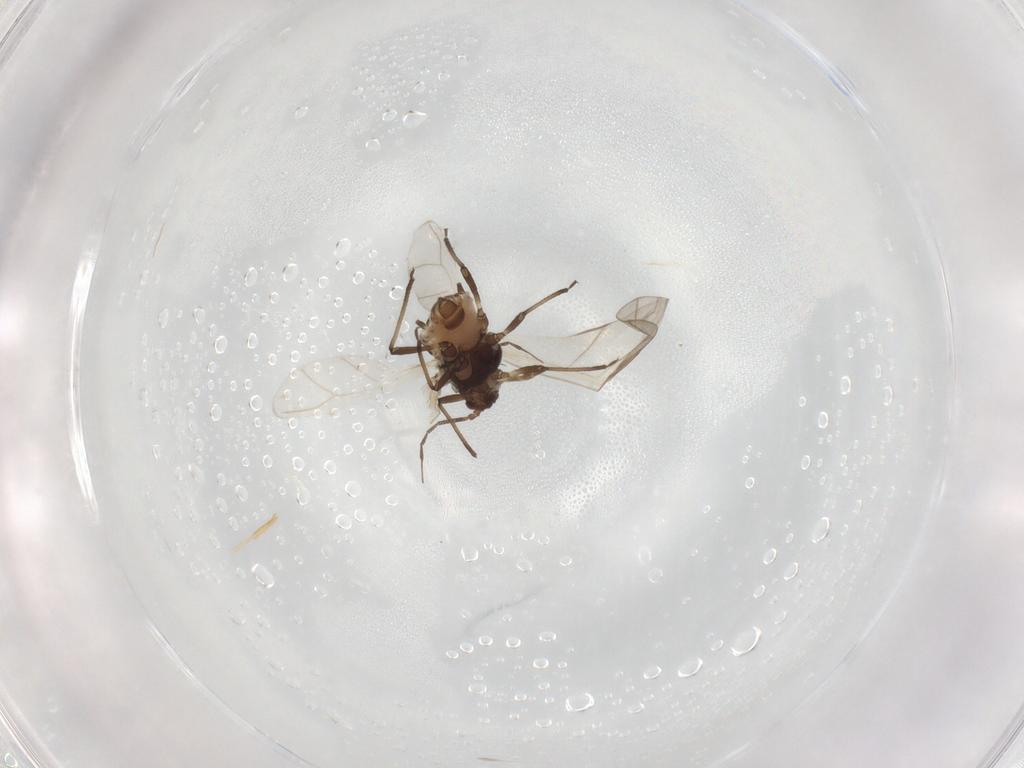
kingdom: Animalia
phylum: Arthropoda
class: Insecta
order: Hemiptera
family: Aphididae
